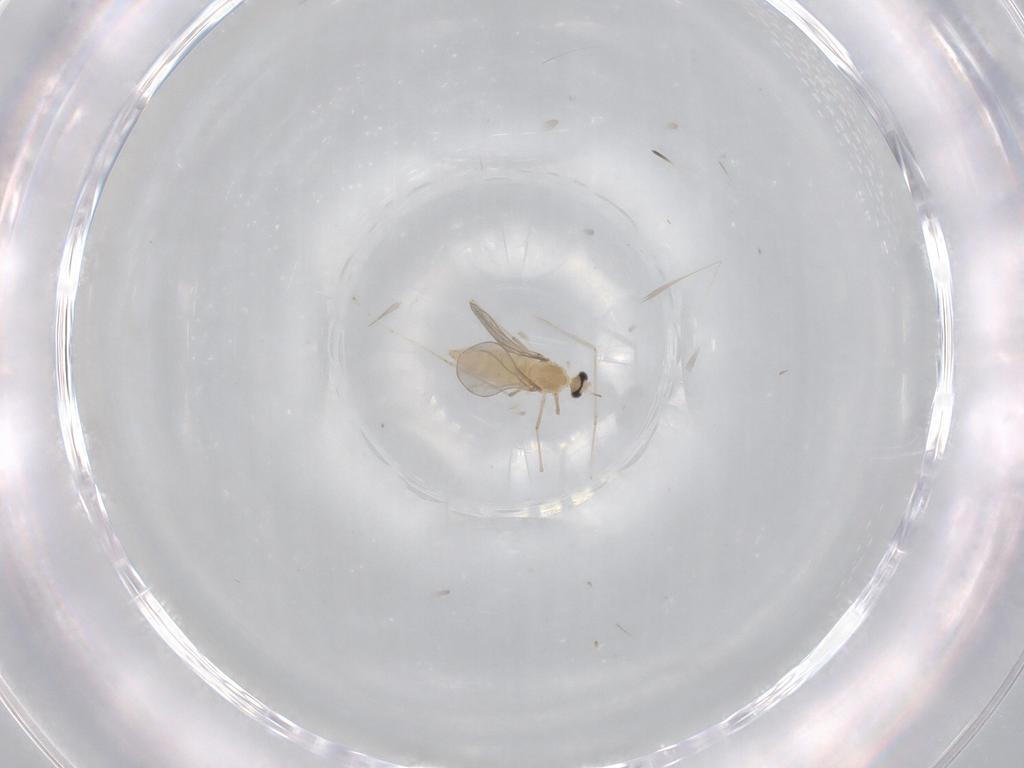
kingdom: Animalia
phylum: Arthropoda
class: Insecta
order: Diptera
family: Cecidomyiidae
